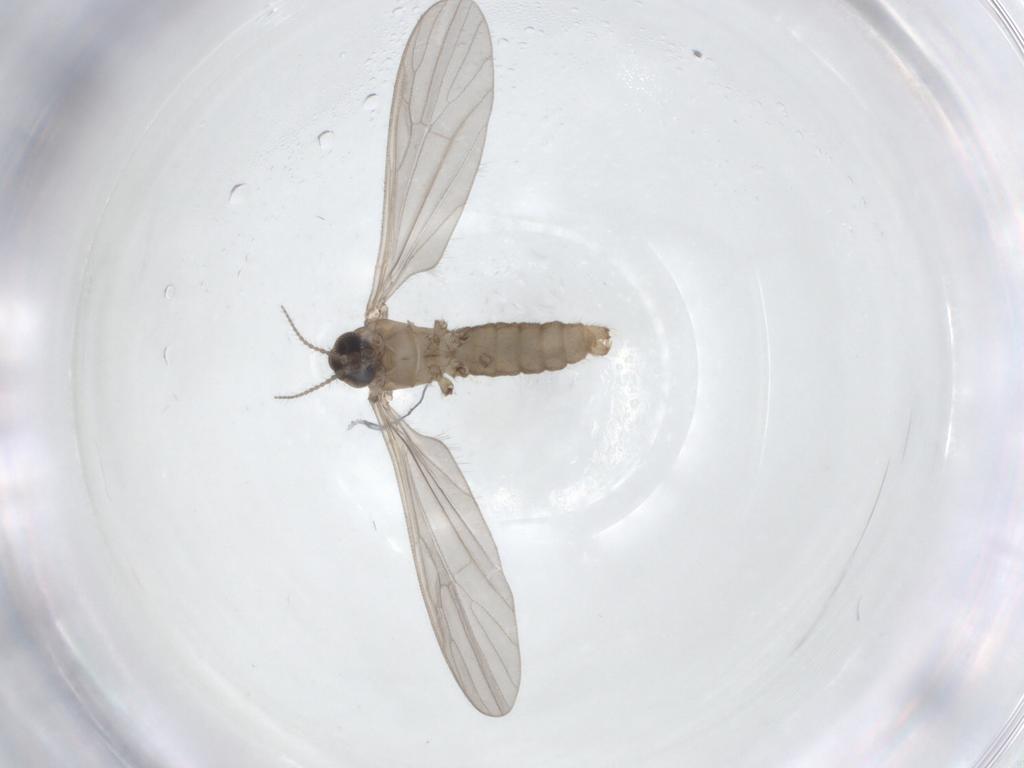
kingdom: Animalia
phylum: Arthropoda
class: Insecta
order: Diptera
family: Limoniidae
